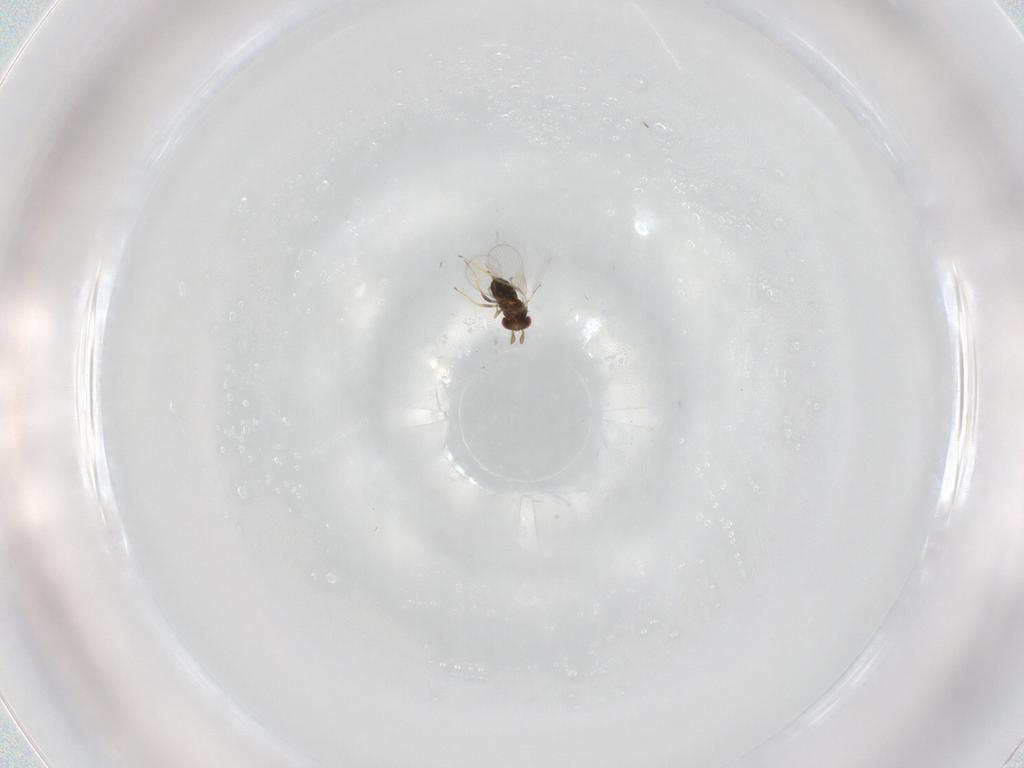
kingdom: Animalia
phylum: Arthropoda
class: Insecta
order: Hymenoptera
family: Trichogrammatidae
